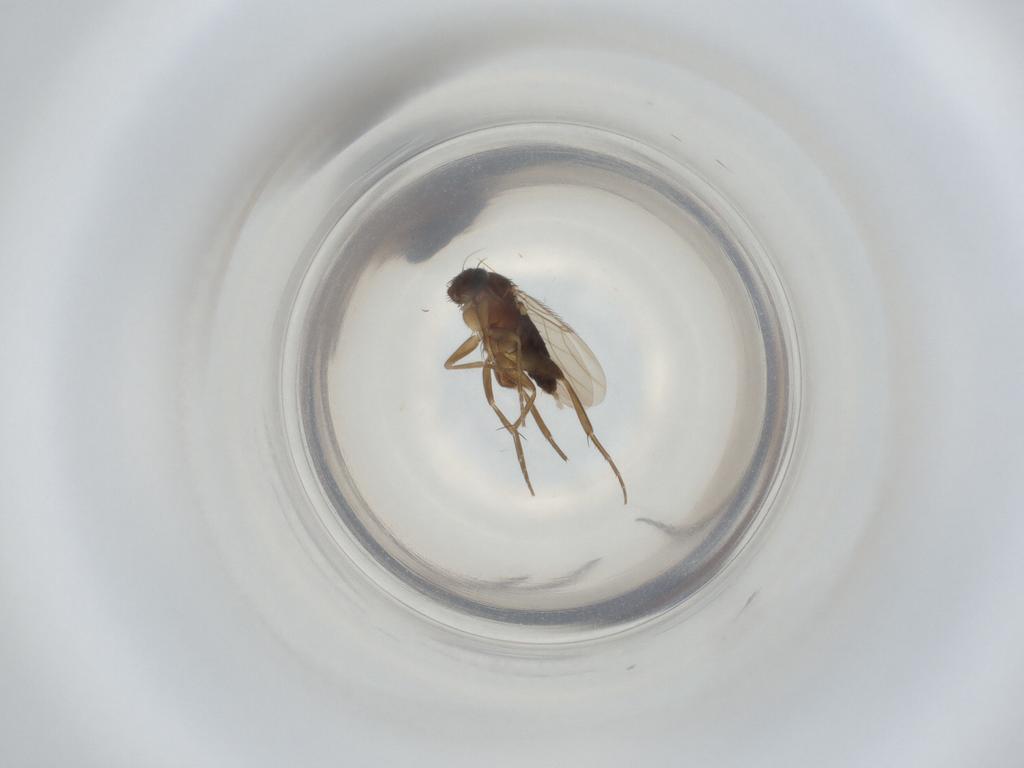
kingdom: Animalia
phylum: Arthropoda
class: Insecta
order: Diptera
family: Phoridae
